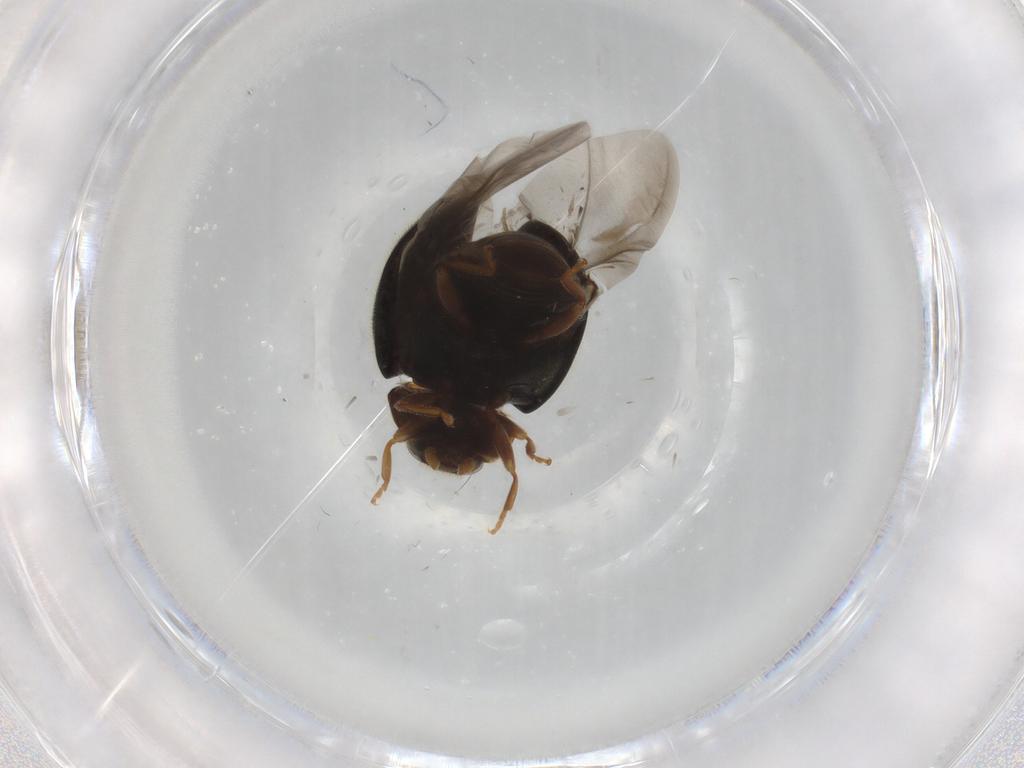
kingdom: Animalia
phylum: Arthropoda
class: Insecta
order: Coleoptera
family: Coccinellidae
